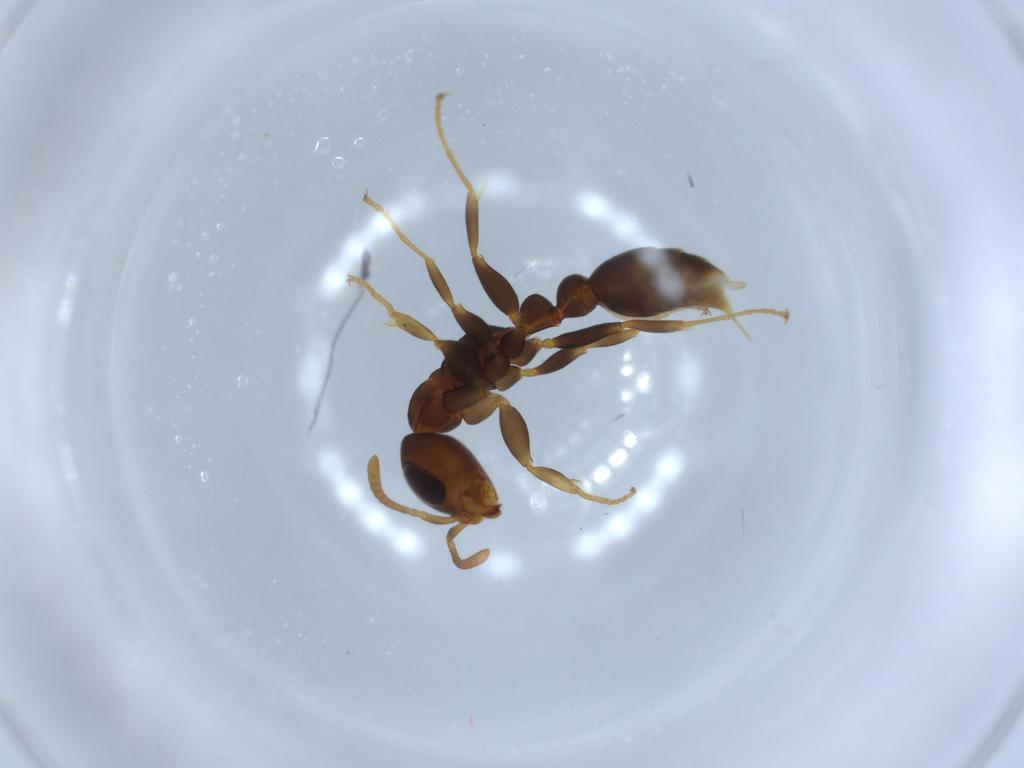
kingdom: Animalia
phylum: Arthropoda
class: Insecta
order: Hymenoptera
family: Formicidae
